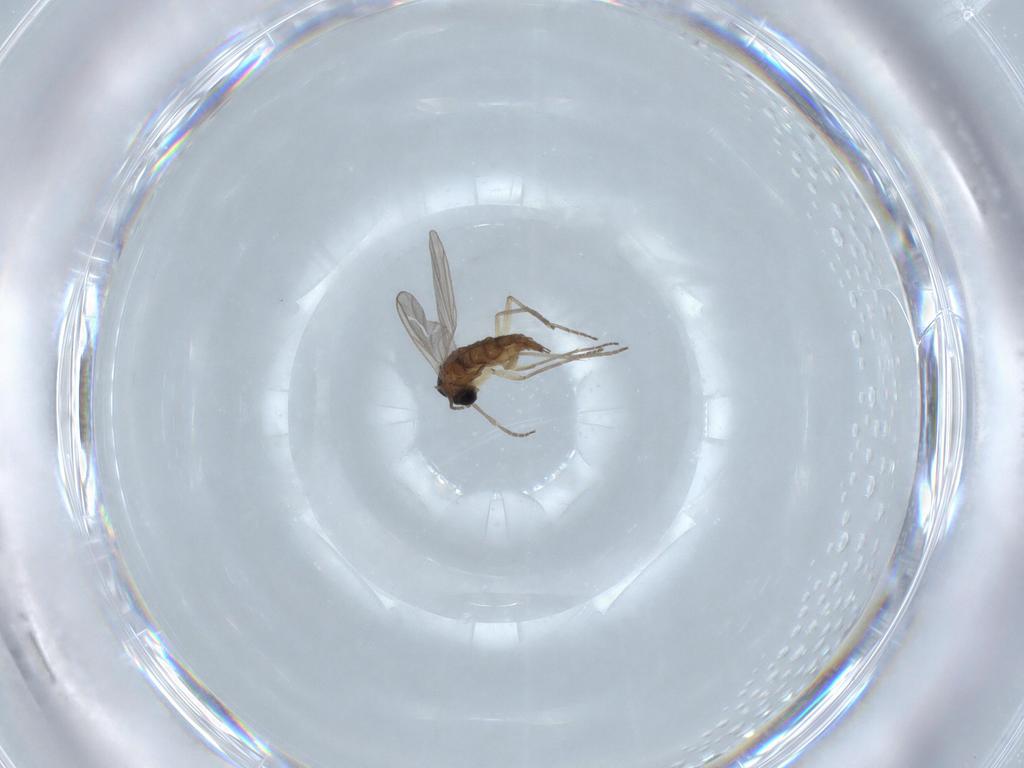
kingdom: Animalia
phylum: Arthropoda
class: Insecta
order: Diptera
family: Sciaridae
